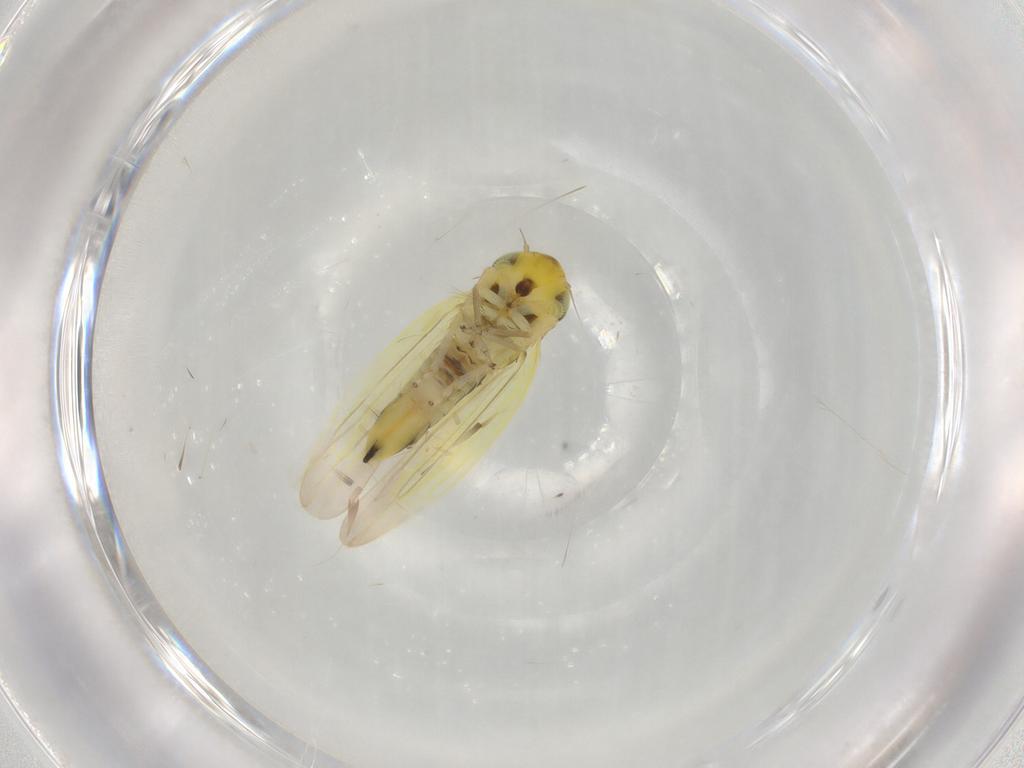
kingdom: Animalia
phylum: Arthropoda
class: Insecta
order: Hemiptera
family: Cicadellidae
